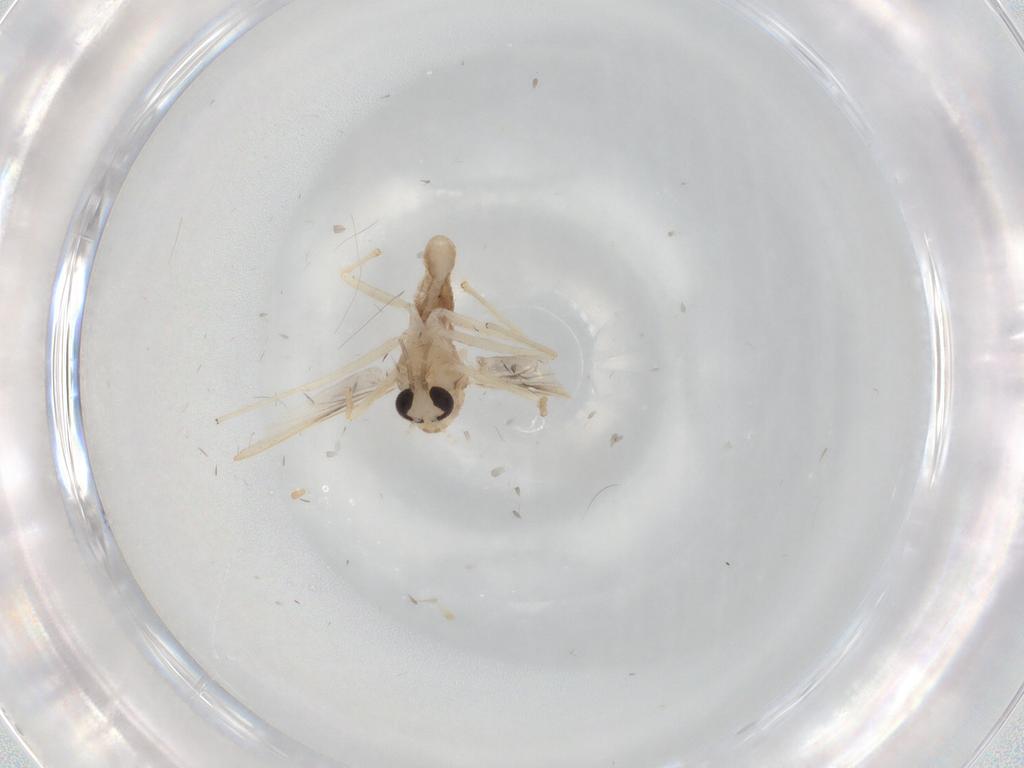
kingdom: Animalia
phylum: Arthropoda
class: Insecta
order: Diptera
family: Chironomidae
